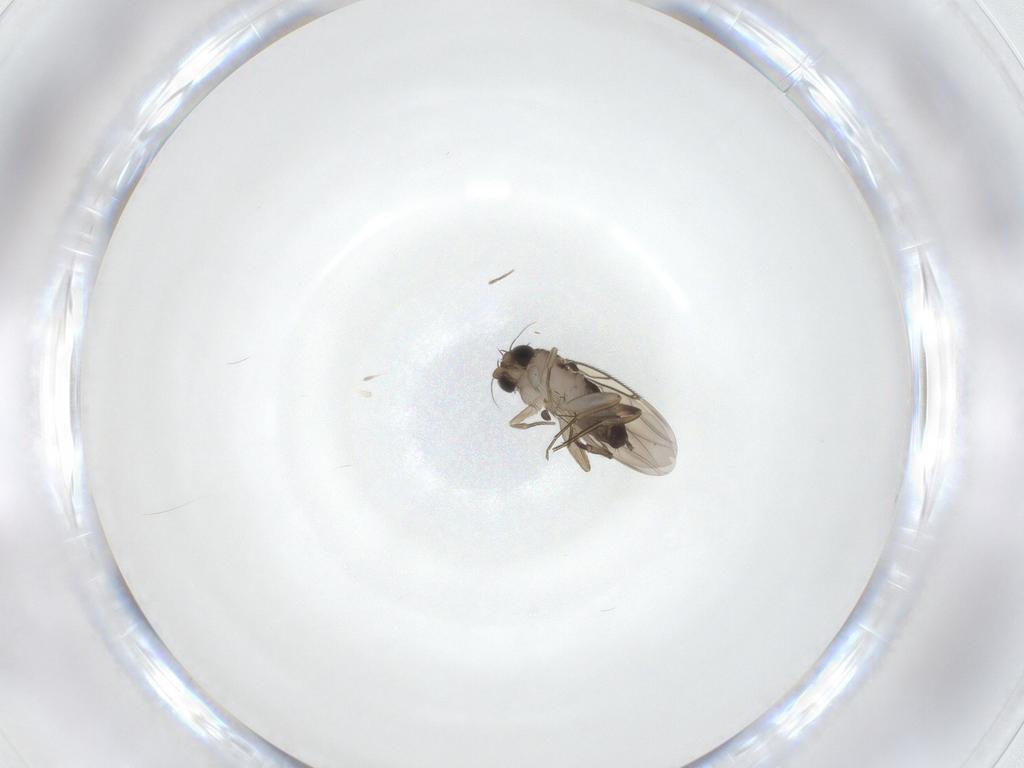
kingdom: Animalia
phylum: Arthropoda
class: Insecta
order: Diptera
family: Phoridae
